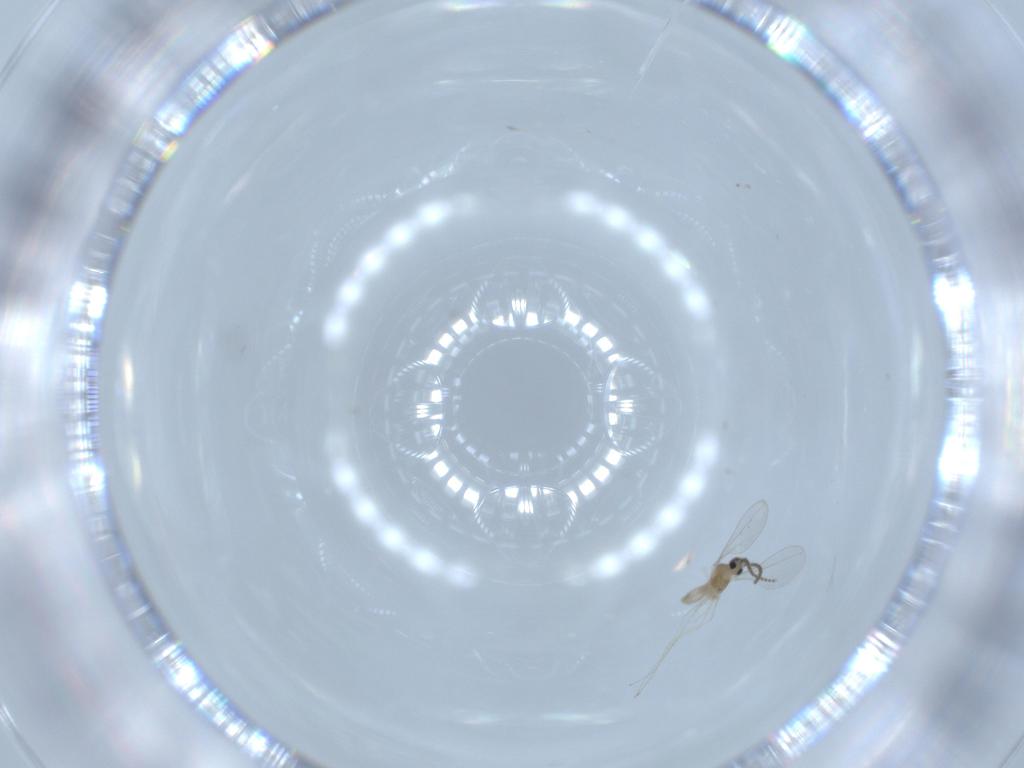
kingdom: Animalia
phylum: Arthropoda
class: Insecta
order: Diptera
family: Cecidomyiidae
